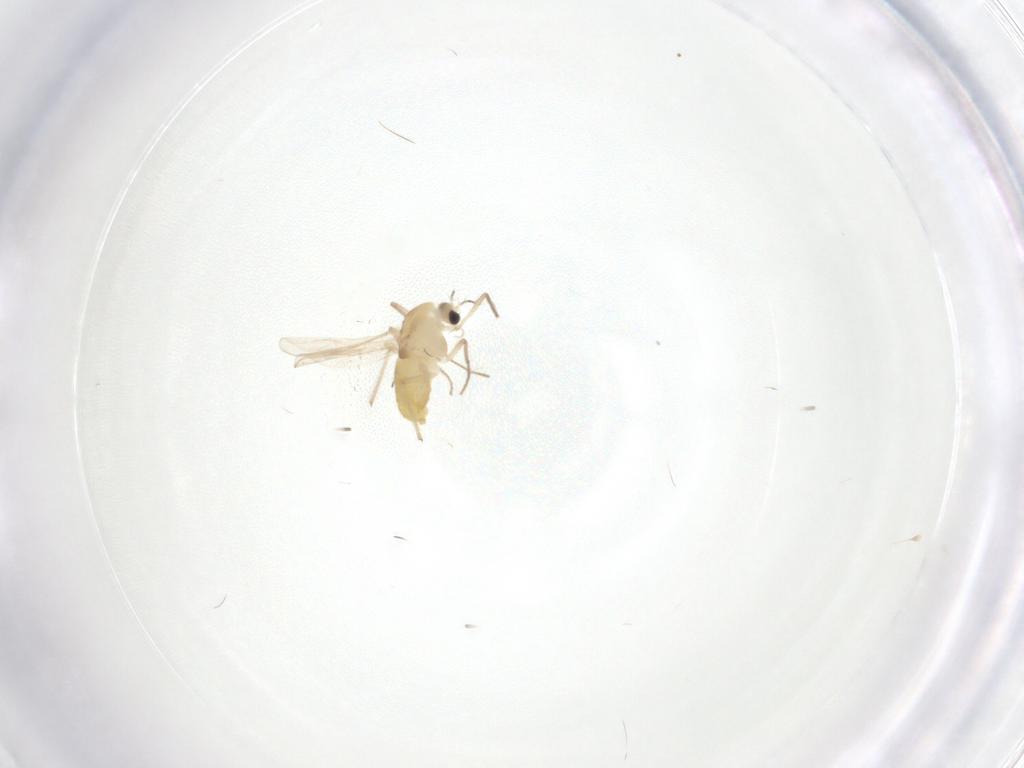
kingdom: Animalia
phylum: Arthropoda
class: Insecta
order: Diptera
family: Chironomidae
